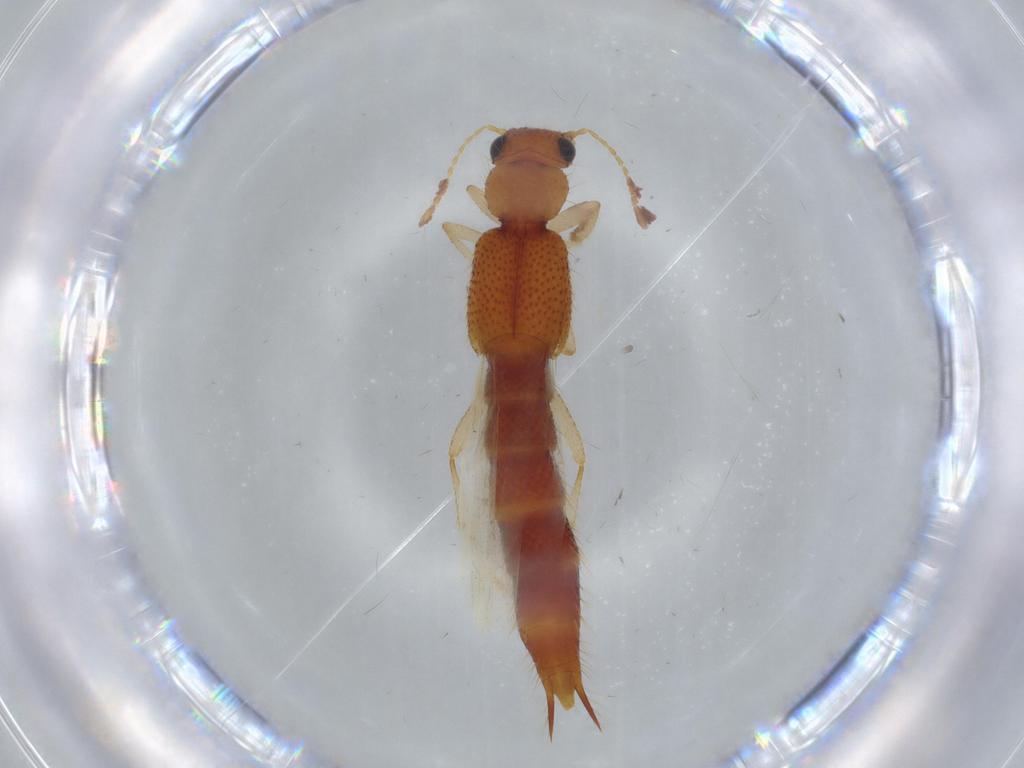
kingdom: Animalia
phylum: Arthropoda
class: Insecta
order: Coleoptera
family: Staphylinidae
